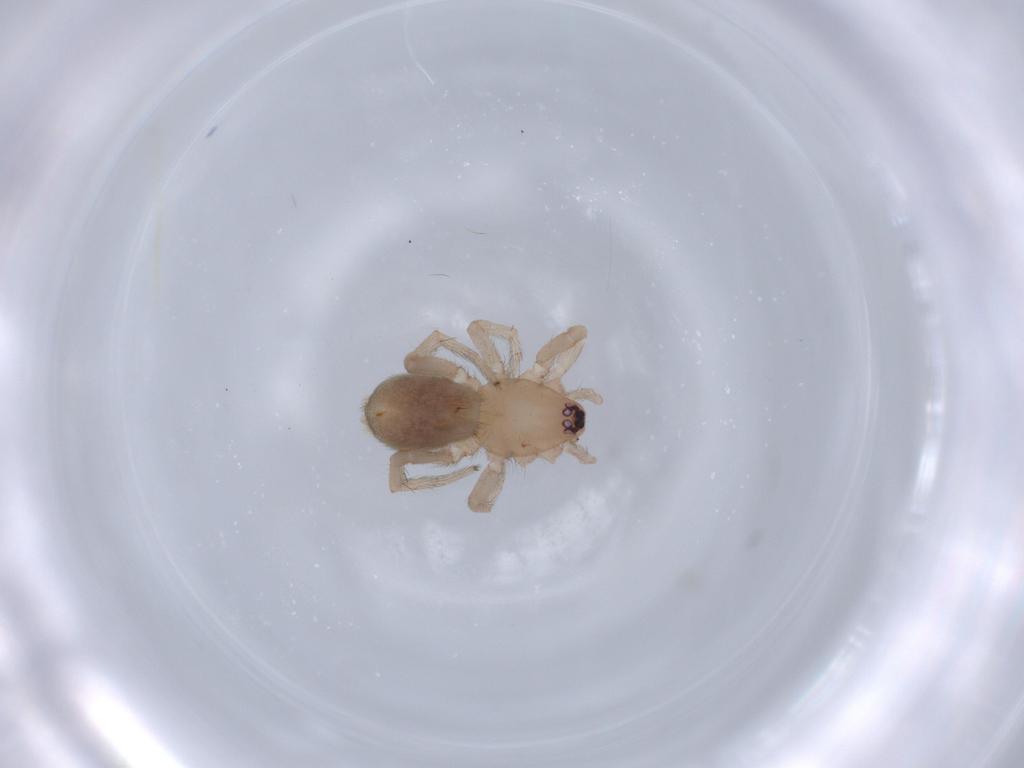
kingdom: Animalia
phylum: Arthropoda
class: Arachnida
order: Araneae
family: Gnaphosidae
